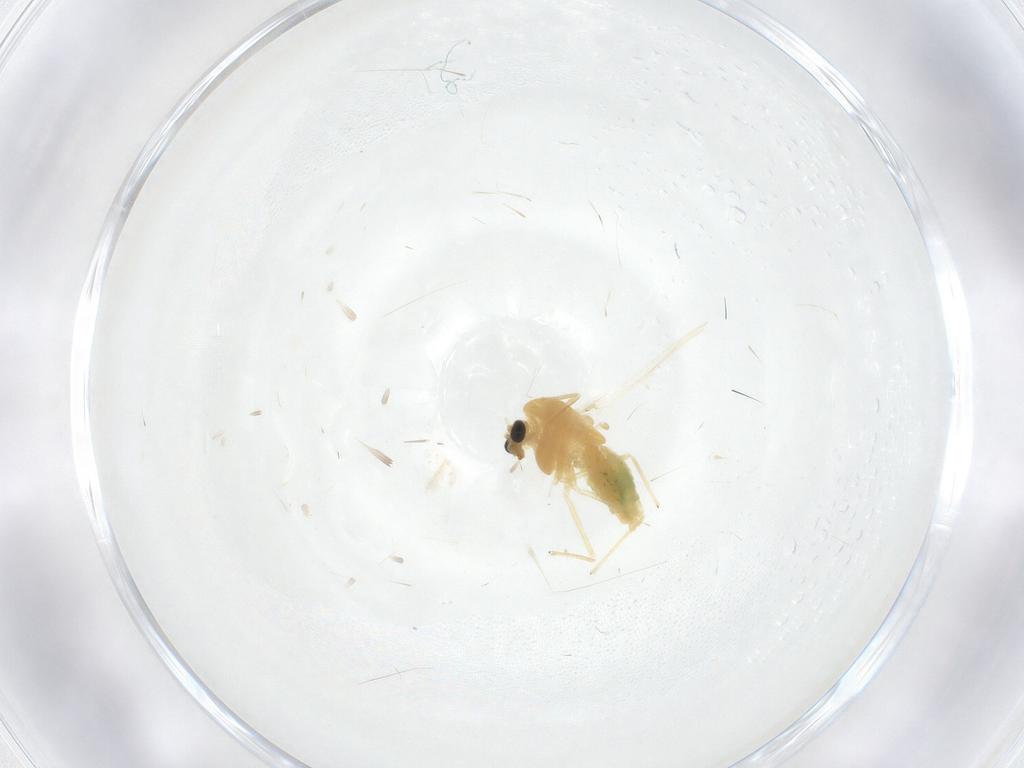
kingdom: Animalia
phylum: Arthropoda
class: Insecta
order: Diptera
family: Chironomidae
